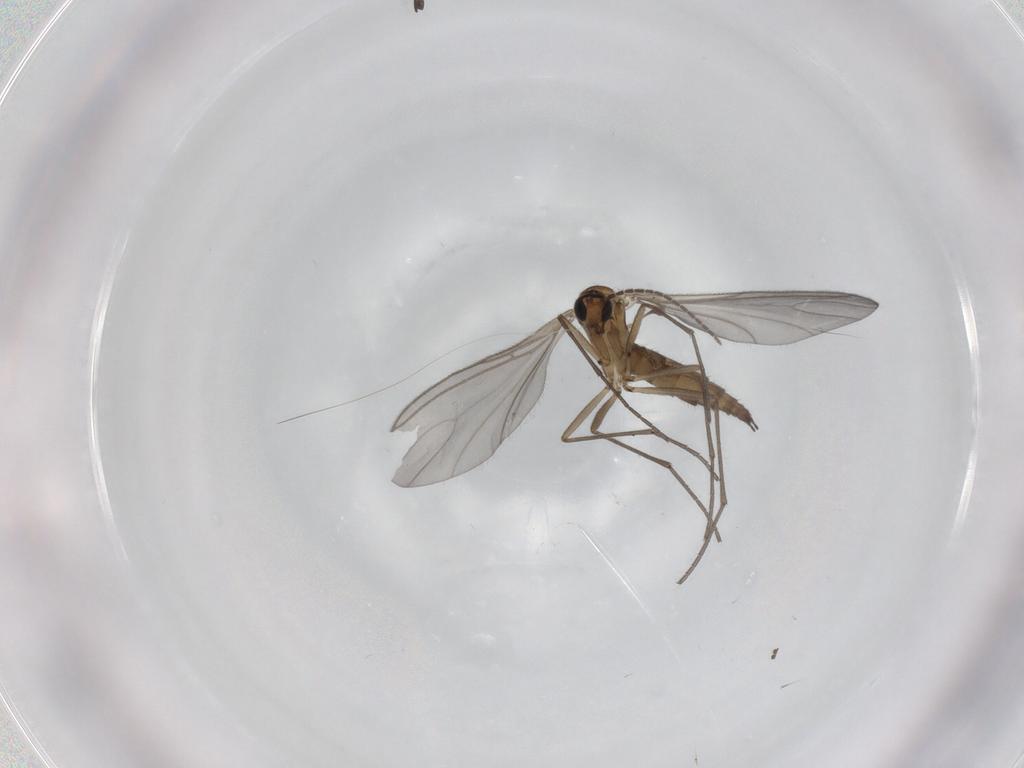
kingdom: Animalia
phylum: Arthropoda
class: Insecta
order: Diptera
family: Sciaridae
